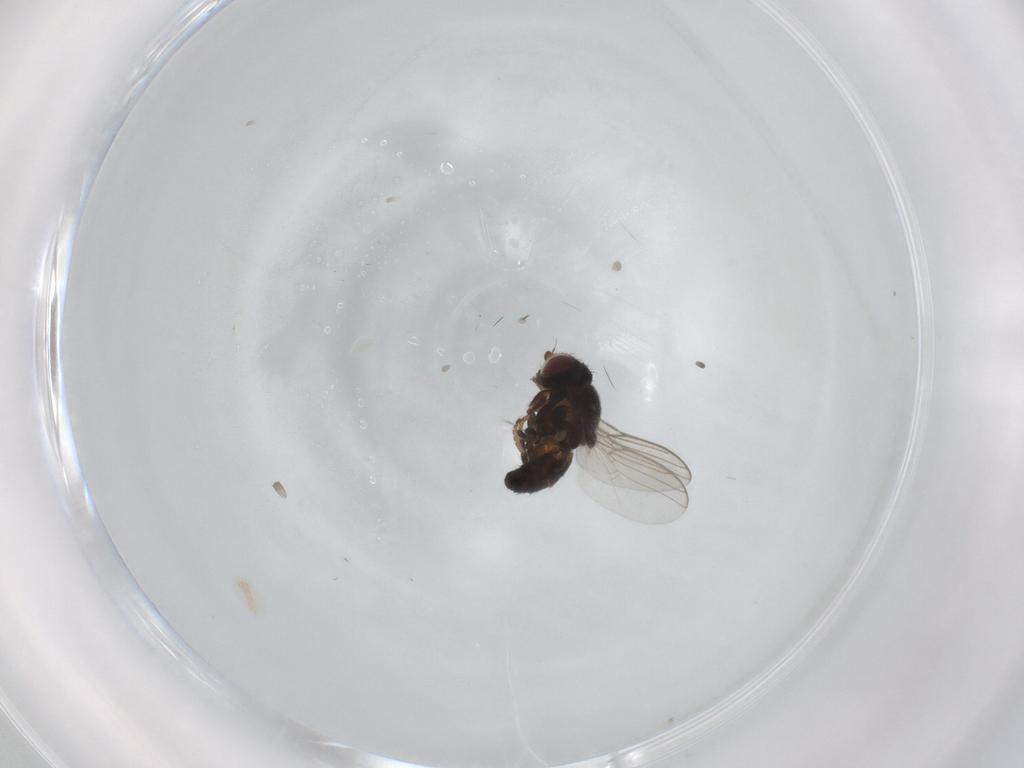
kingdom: Animalia
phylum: Arthropoda
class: Insecta
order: Diptera
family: Chloropidae
